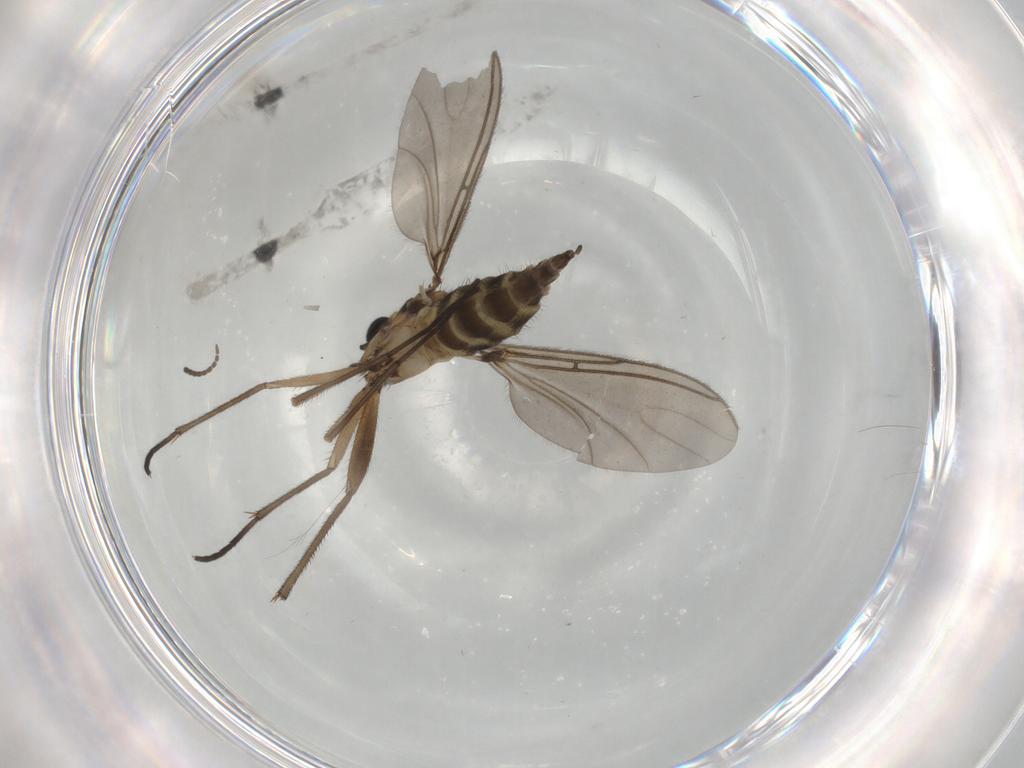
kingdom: Animalia
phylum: Arthropoda
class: Insecta
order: Diptera
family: Sciaridae
